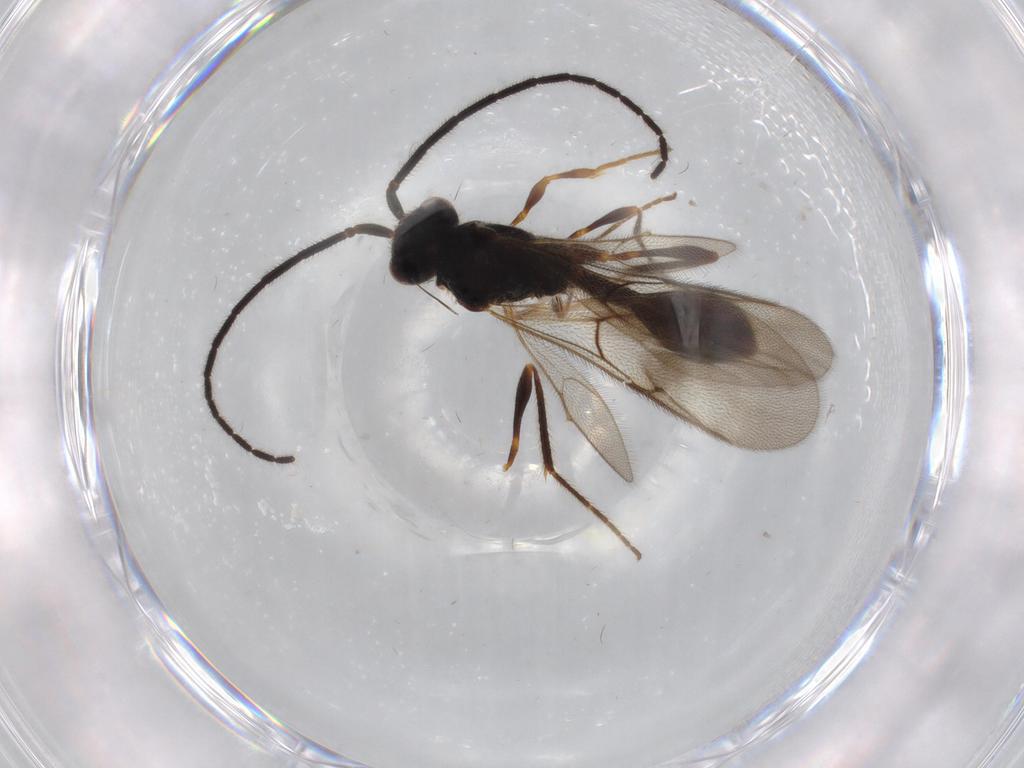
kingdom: Animalia
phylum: Arthropoda
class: Insecta
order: Hymenoptera
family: Diapriidae
